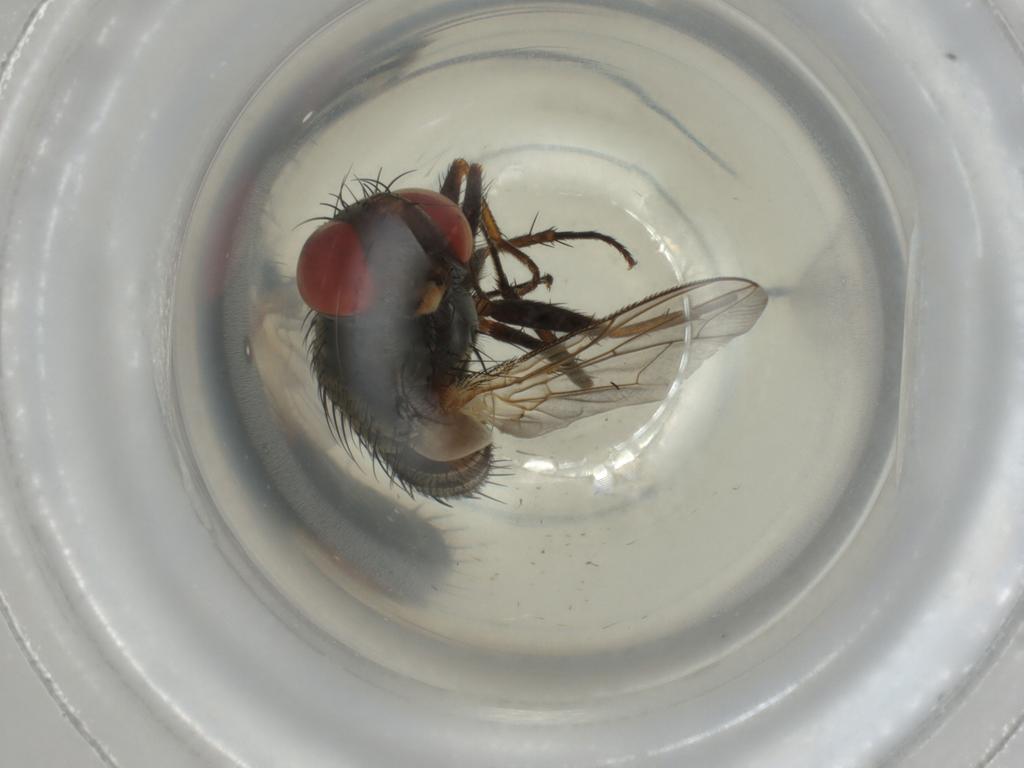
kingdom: Animalia
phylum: Arthropoda
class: Insecta
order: Diptera
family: Sarcophagidae
